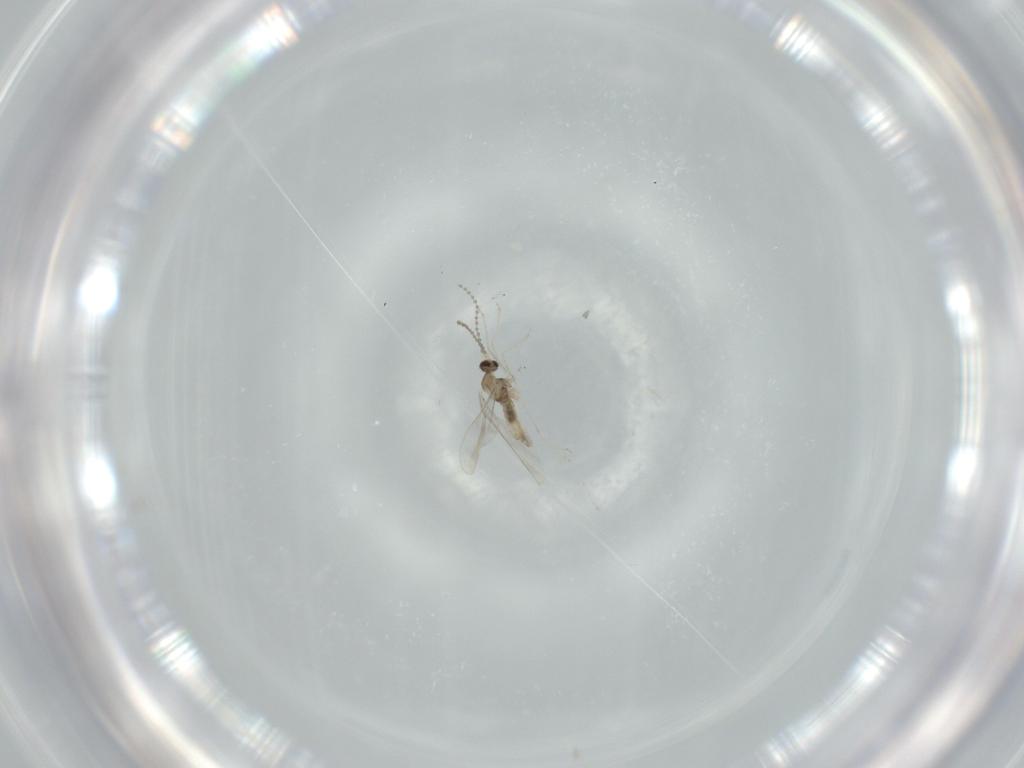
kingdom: Animalia
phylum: Arthropoda
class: Insecta
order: Diptera
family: Cecidomyiidae
